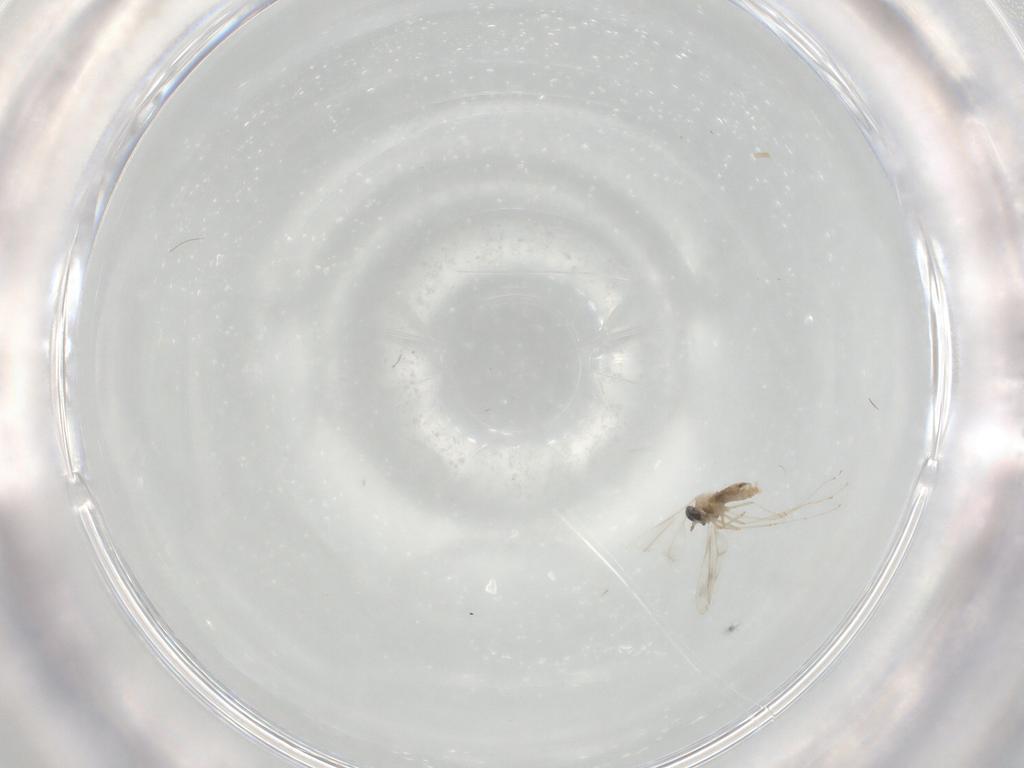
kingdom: Animalia
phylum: Arthropoda
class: Insecta
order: Diptera
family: Cecidomyiidae
